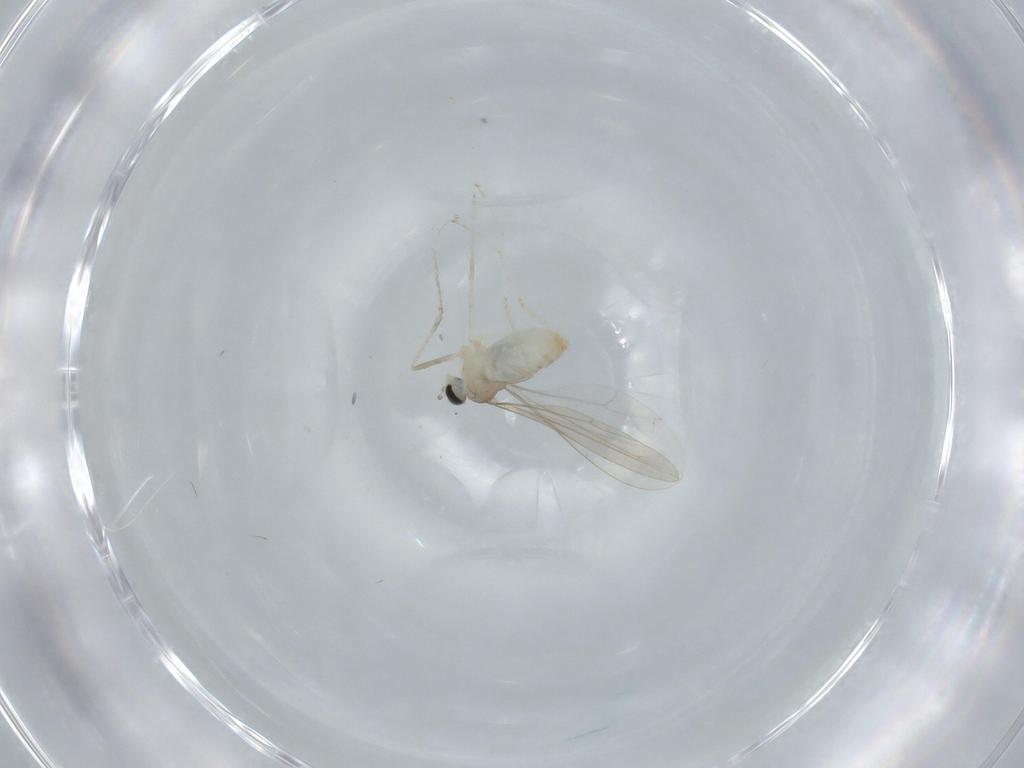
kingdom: Animalia
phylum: Arthropoda
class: Insecta
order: Diptera
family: Cecidomyiidae
